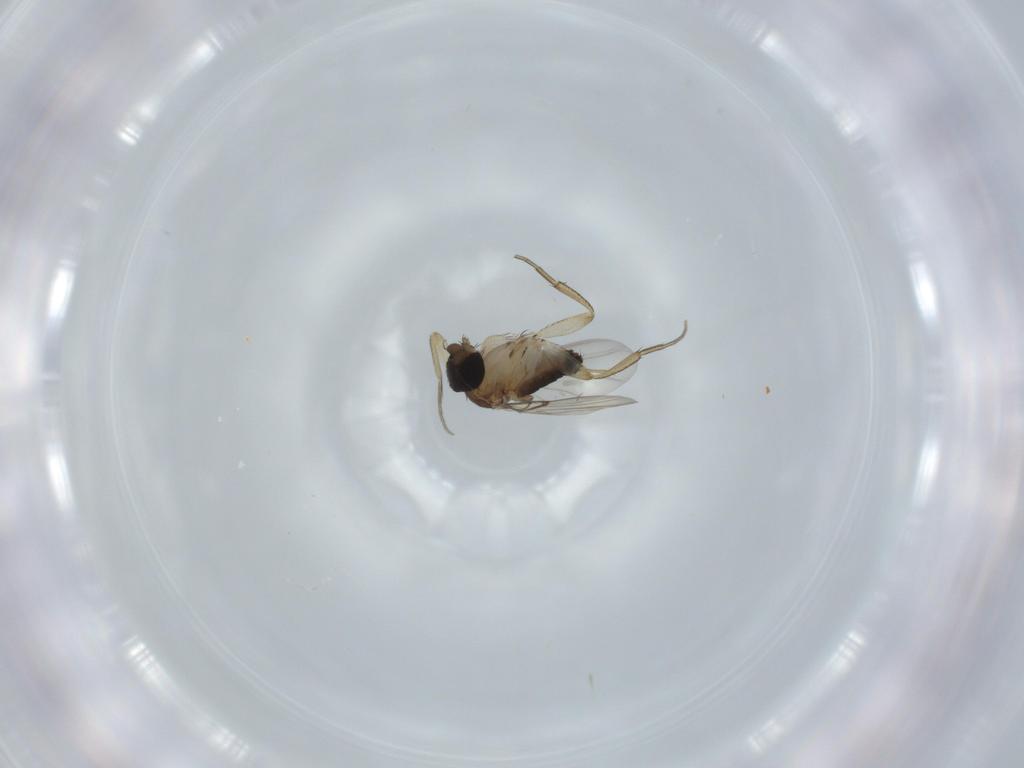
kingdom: Animalia
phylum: Arthropoda
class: Insecta
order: Diptera
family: Phoridae
